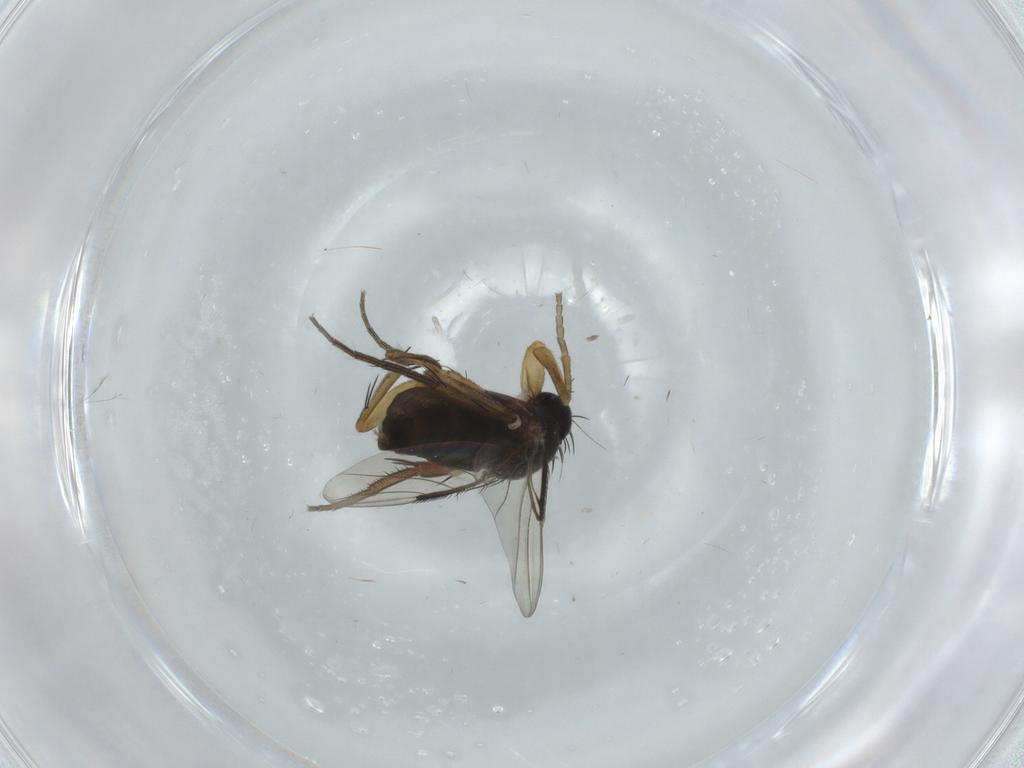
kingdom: Animalia
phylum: Arthropoda
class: Insecta
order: Diptera
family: Phoridae
